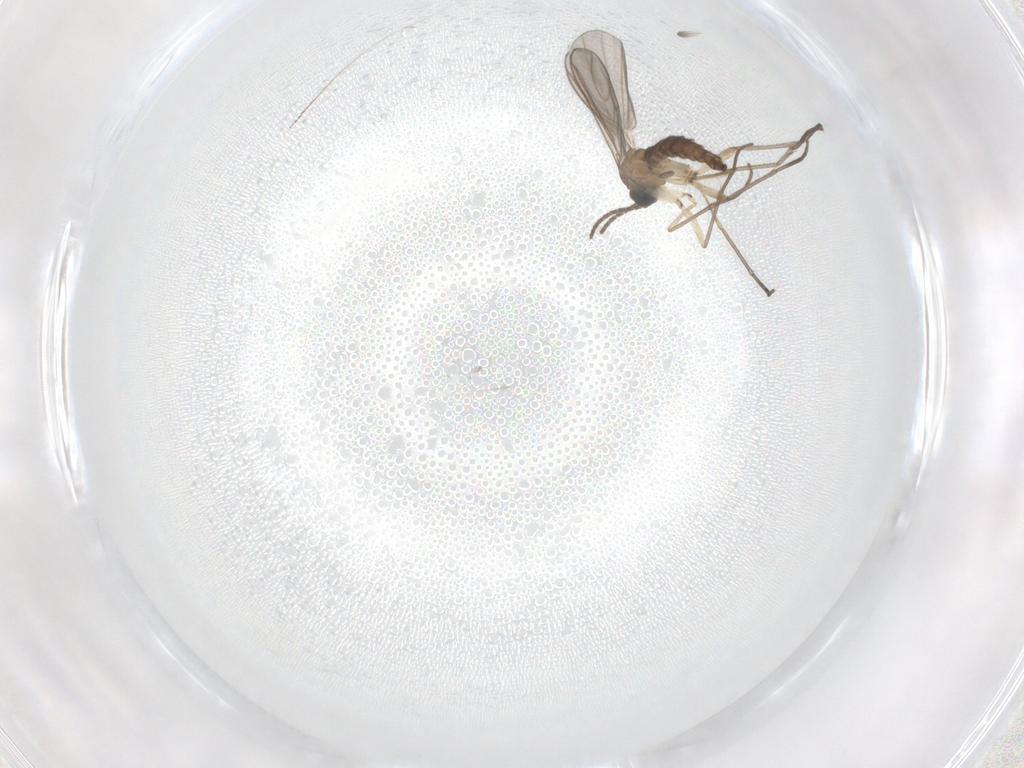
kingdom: Animalia
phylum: Arthropoda
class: Insecta
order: Diptera
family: Sciaridae
